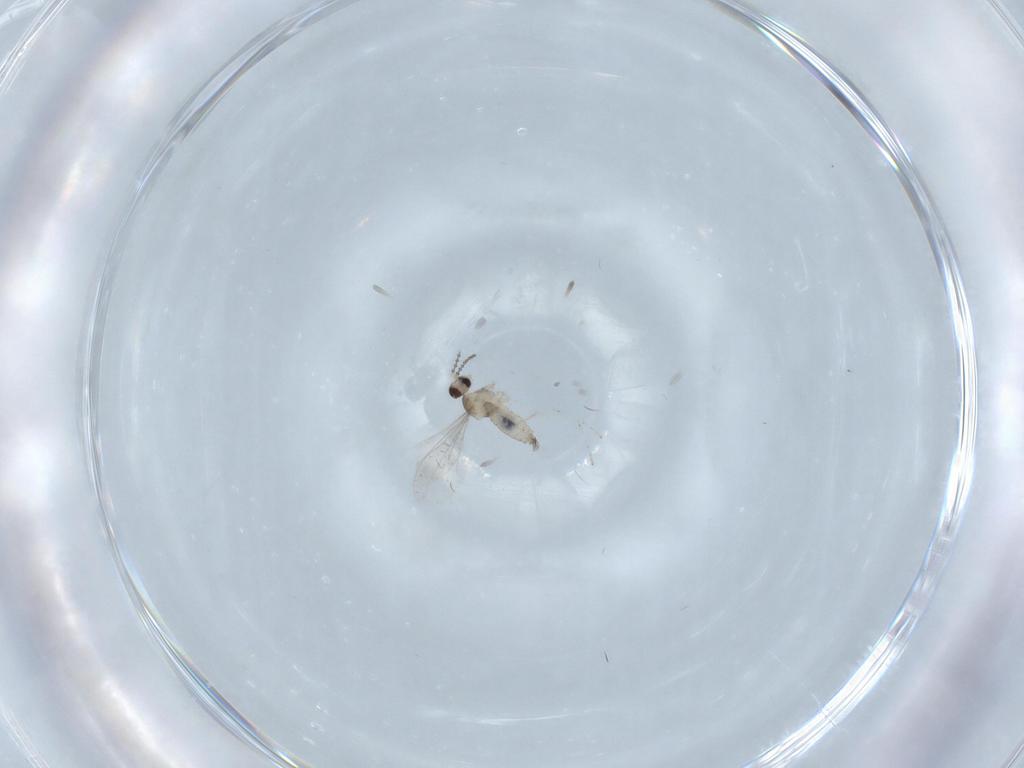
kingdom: Animalia
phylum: Arthropoda
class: Insecta
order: Diptera
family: Cecidomyiidae
